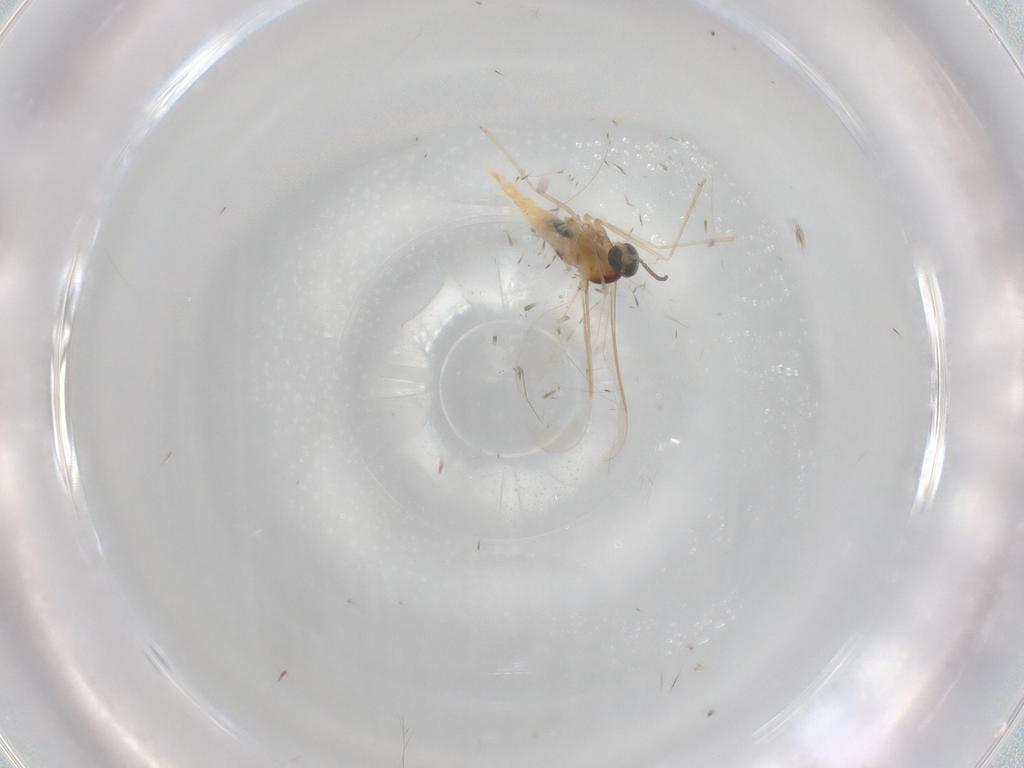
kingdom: Animalia
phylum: Arthropoda
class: Insecta
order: Diptera
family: Cecidomyiidae
